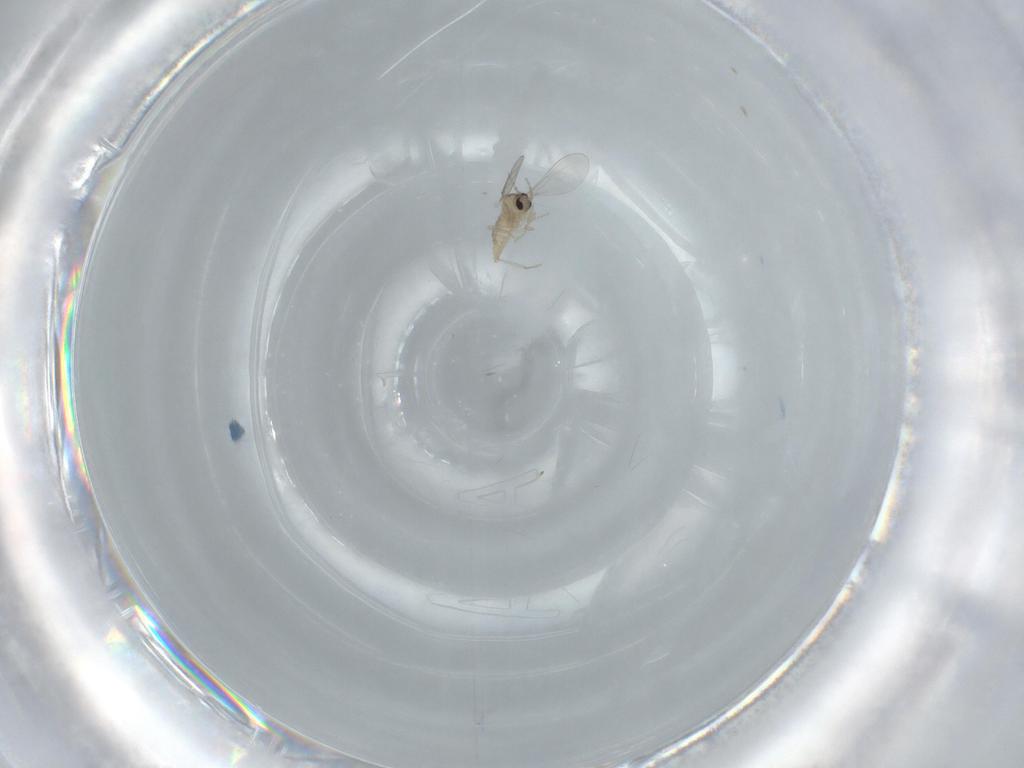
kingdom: Animalia
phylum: Arthropoda
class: Insecta
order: Diptera
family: Cecidomyiidae
